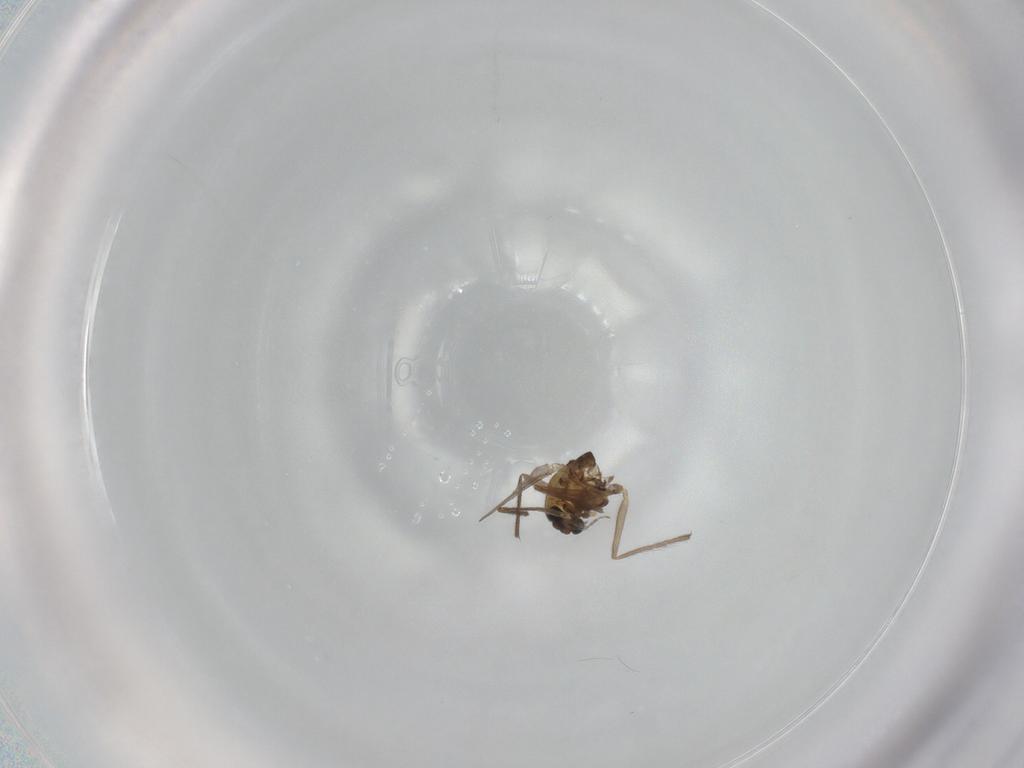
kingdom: Animalia
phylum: Arthropoda
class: Insecta
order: Diptera
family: Chironomidae
